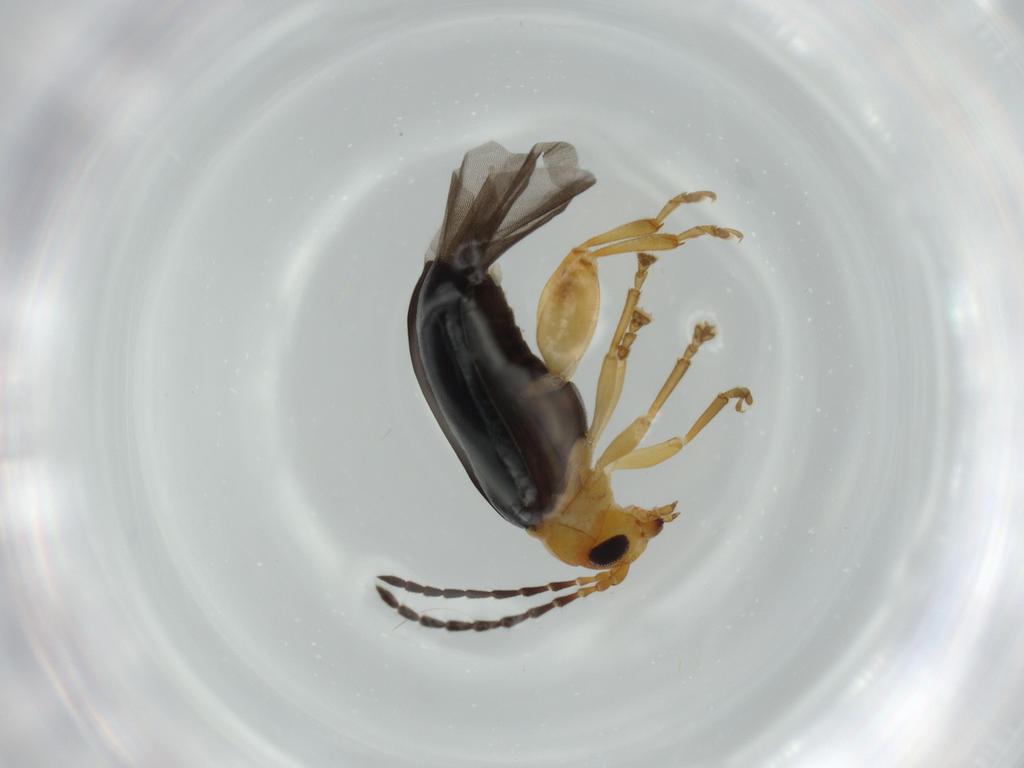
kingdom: Animalia
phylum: Arthropoda
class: Insecta
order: Coleoptera
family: Chrysomelidae
